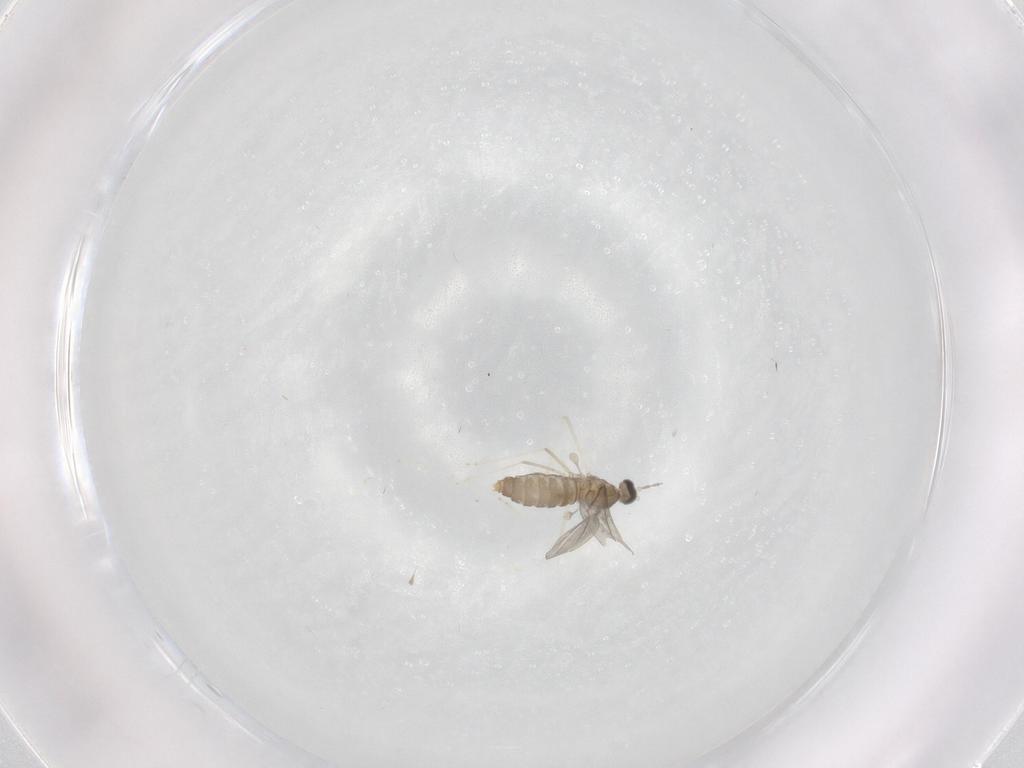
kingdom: Animalia
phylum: Arthropoda
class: Insecta
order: Diptera
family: Cecidomyiidae
